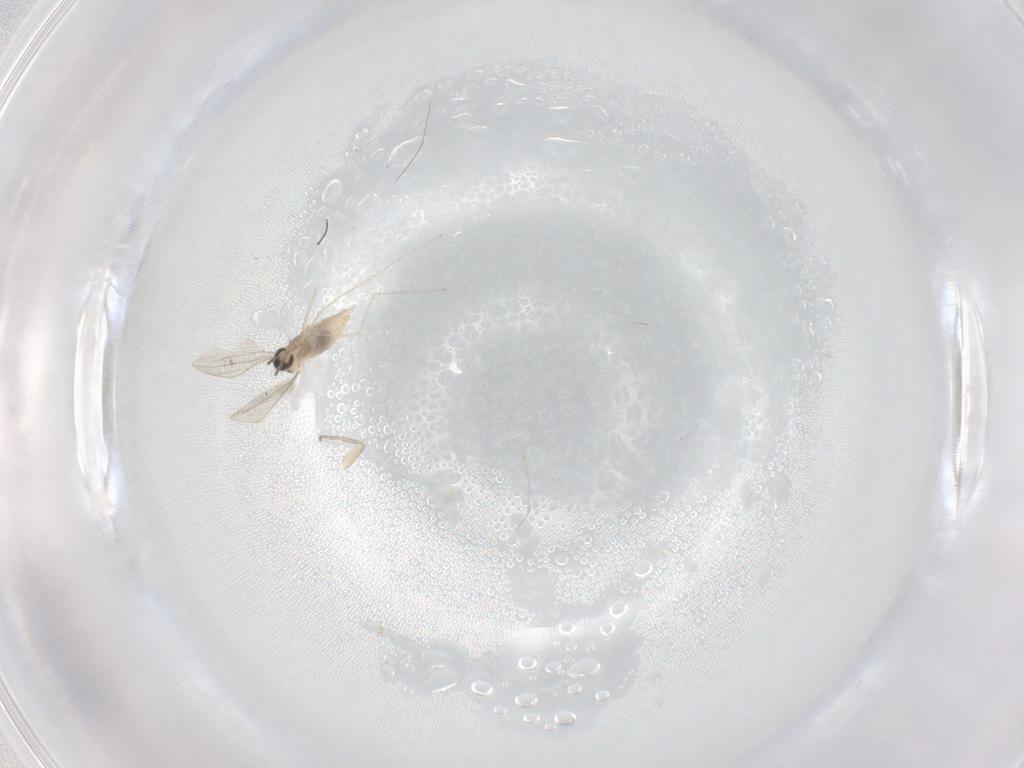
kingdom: Animalia
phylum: Arthropoda
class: Insecta
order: Diptera
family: Phoridae
